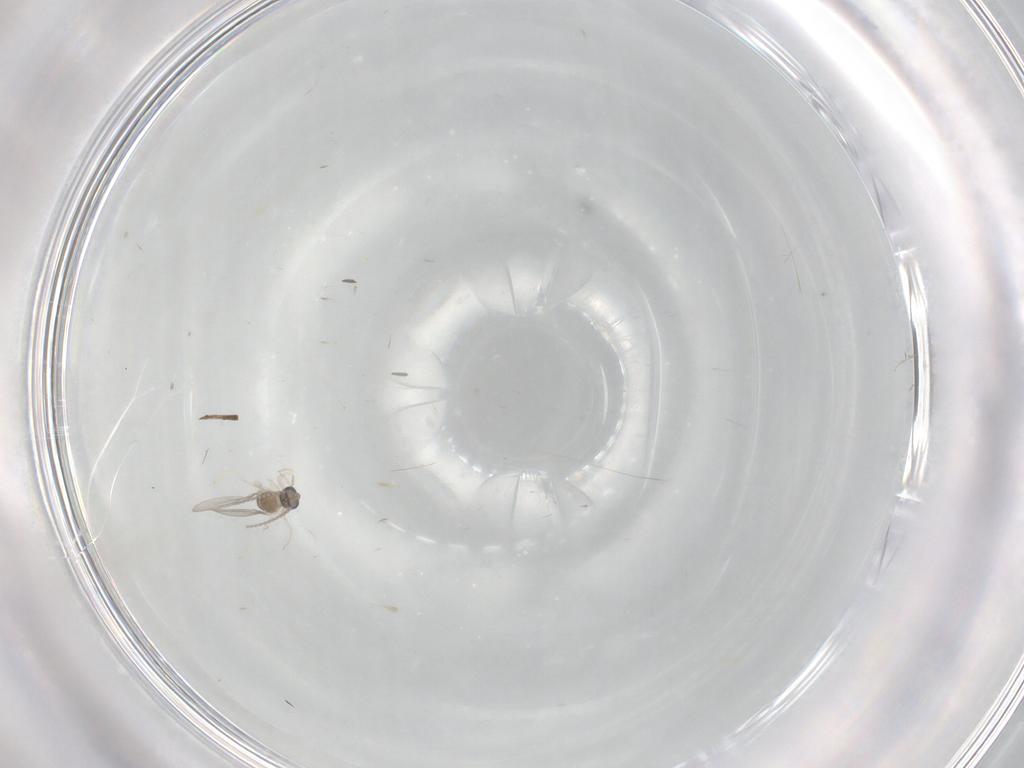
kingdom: Animalia
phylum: Arthropoda
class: Insecta
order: Diptera
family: Cecidomyiidae
